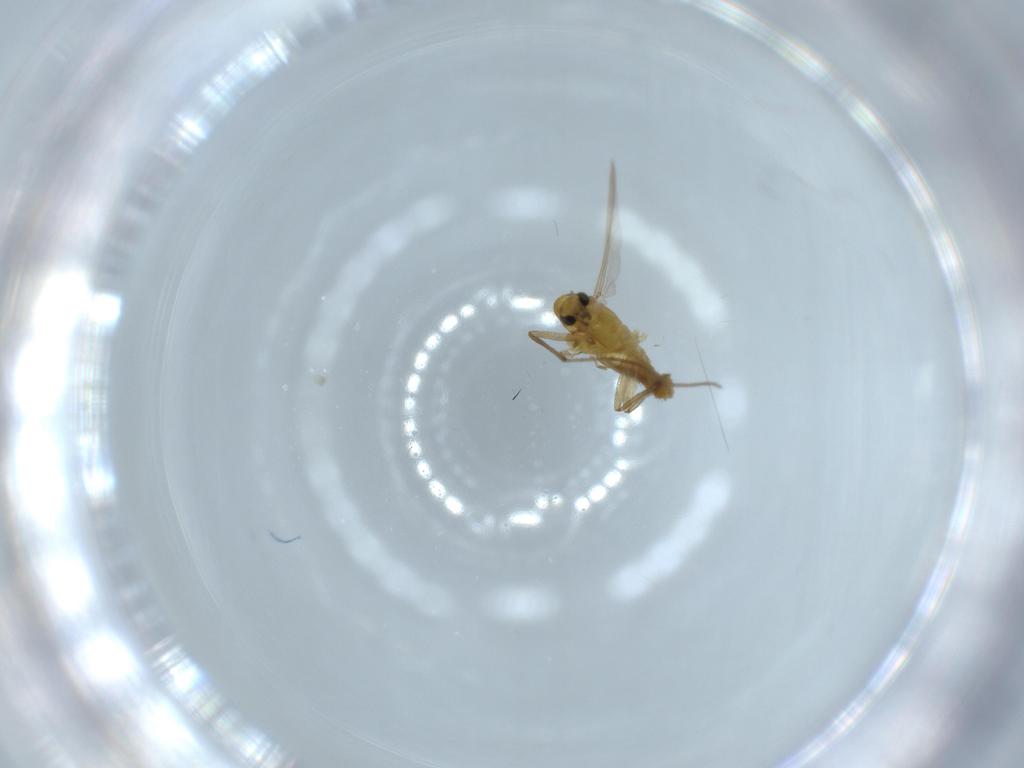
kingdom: Animalia
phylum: Arthropoda
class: Insecta
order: Diptera
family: Chironomidae
